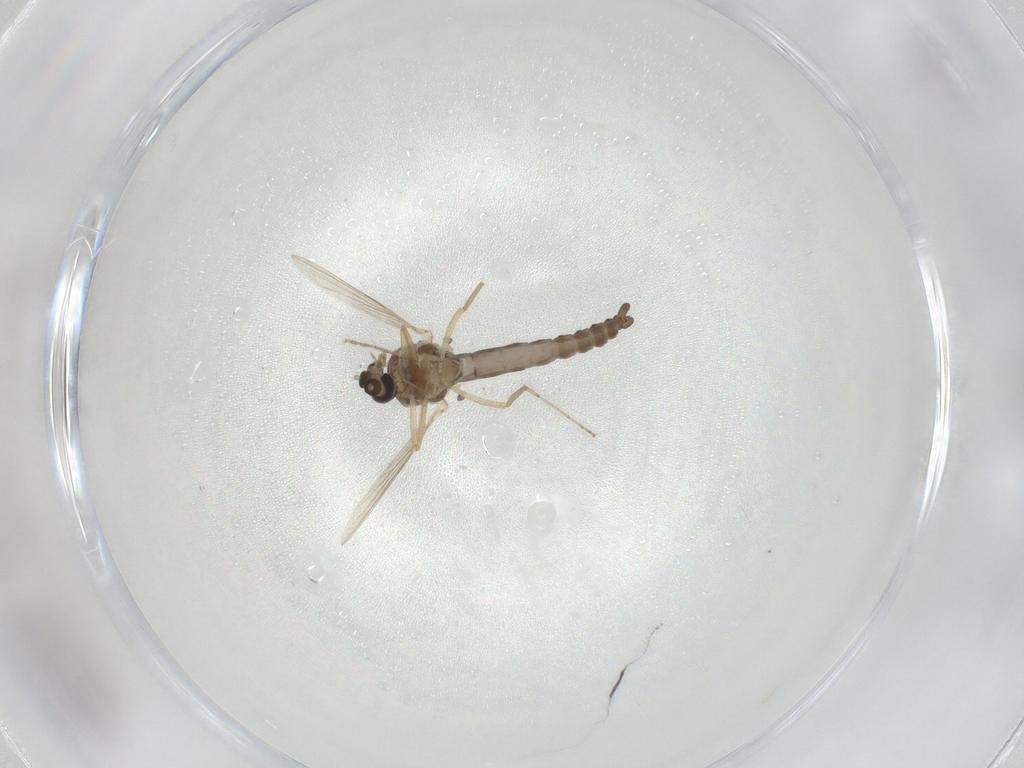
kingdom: Animalia
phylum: Arthropoda
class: Insecta
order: Diptera
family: Ceratopogonidae
